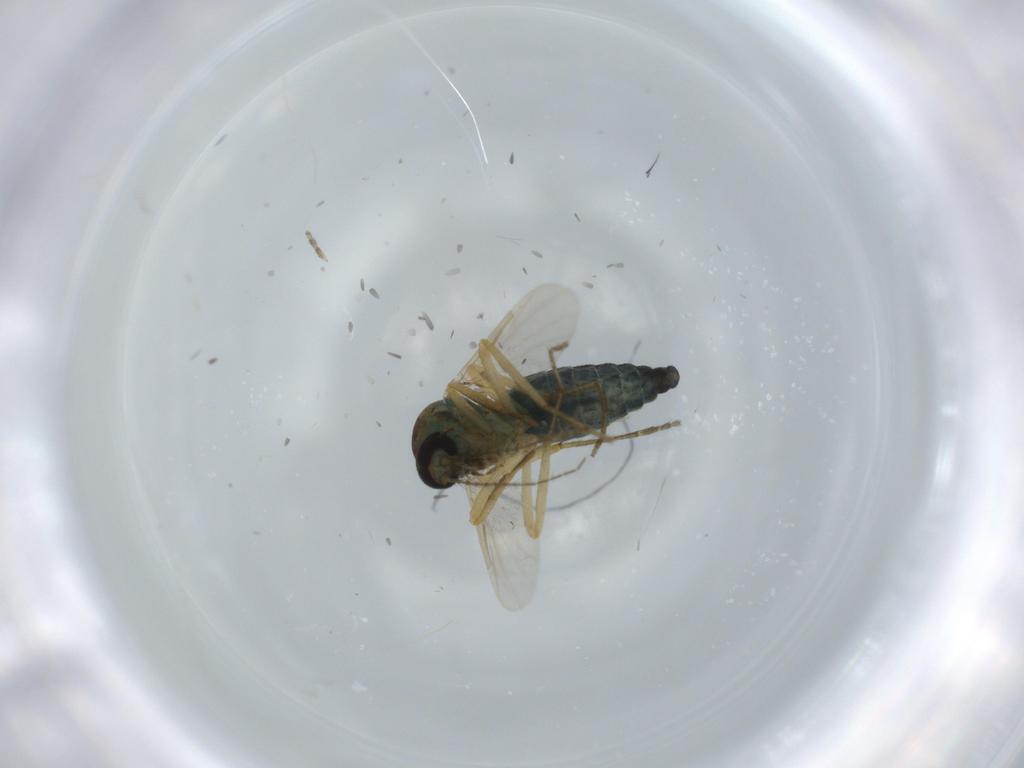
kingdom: Animalia
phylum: Arthropoda
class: Insecta
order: Diptera
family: Ceratopogonidae
